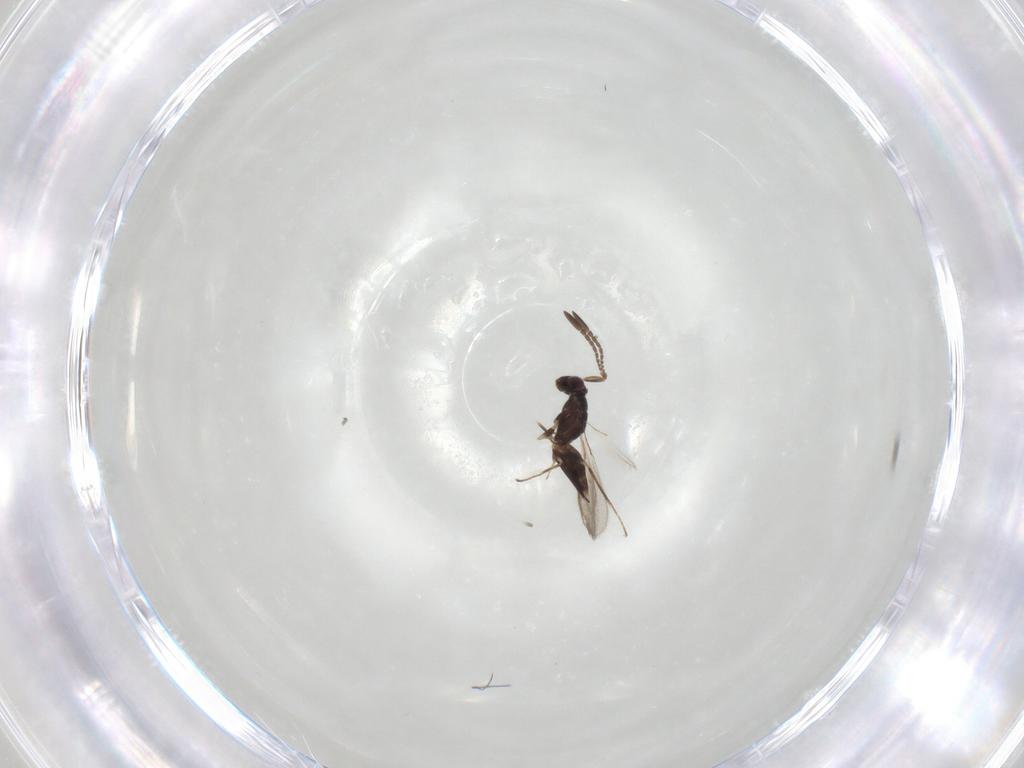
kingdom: Animalia
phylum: Arthropoda
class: Insecta
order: Hymenoptera
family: Mymaridae
